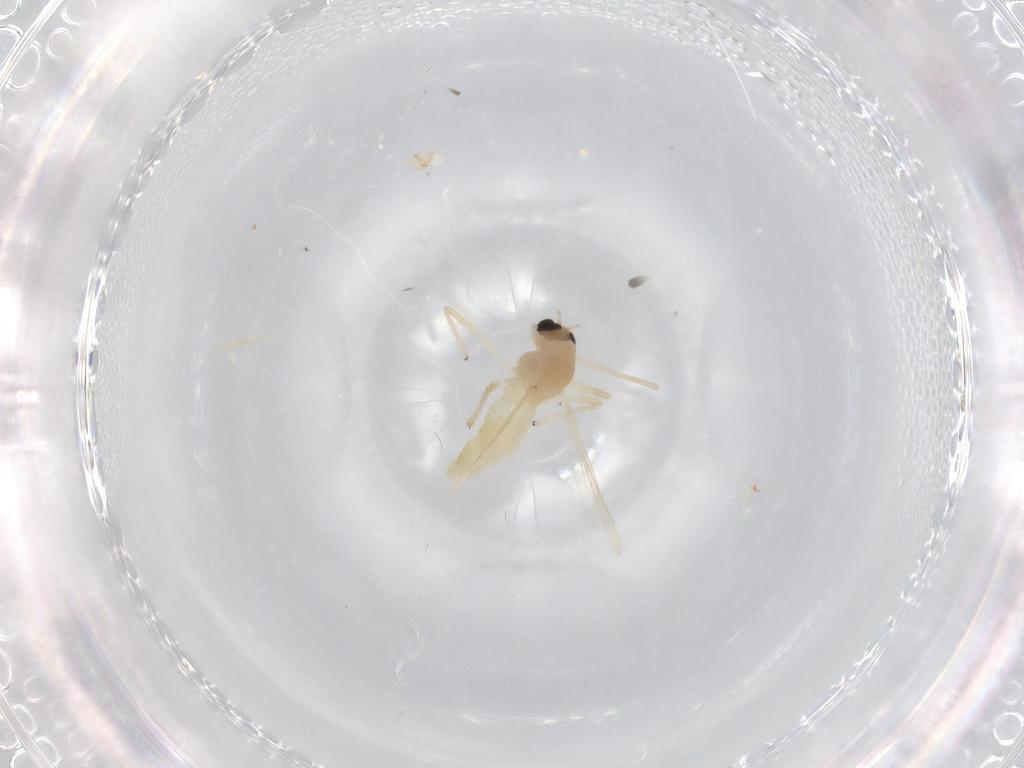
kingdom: Animalia
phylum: Arthropoda
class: Insecta
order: Diptera
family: Chironomidae
